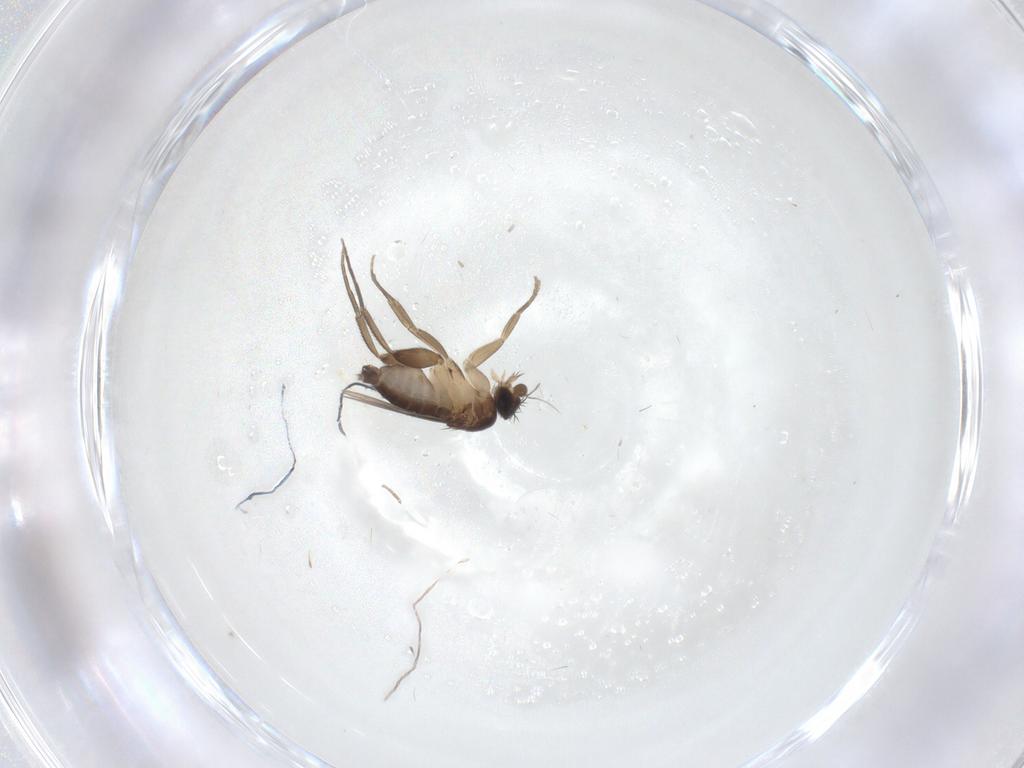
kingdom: Animalia
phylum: Arthropoda
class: Insecta
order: Diptera
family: Phoridae
